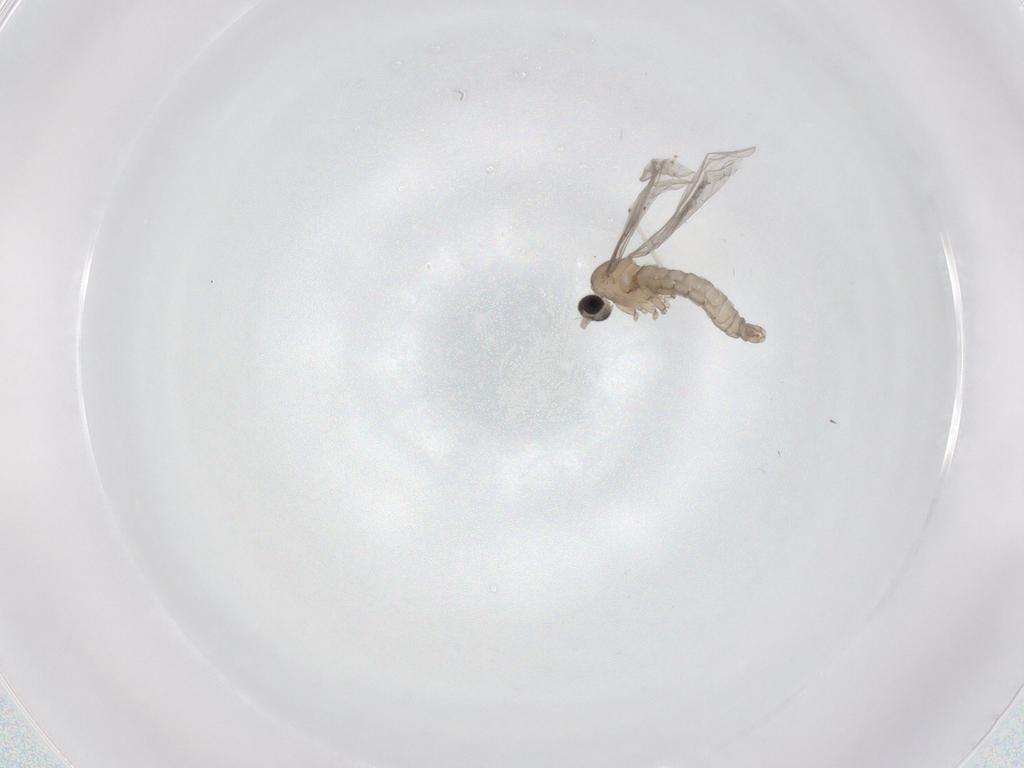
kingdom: Animalia
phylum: Arthropoda
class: Insecta
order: Diptera
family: Cecidomyiidae
